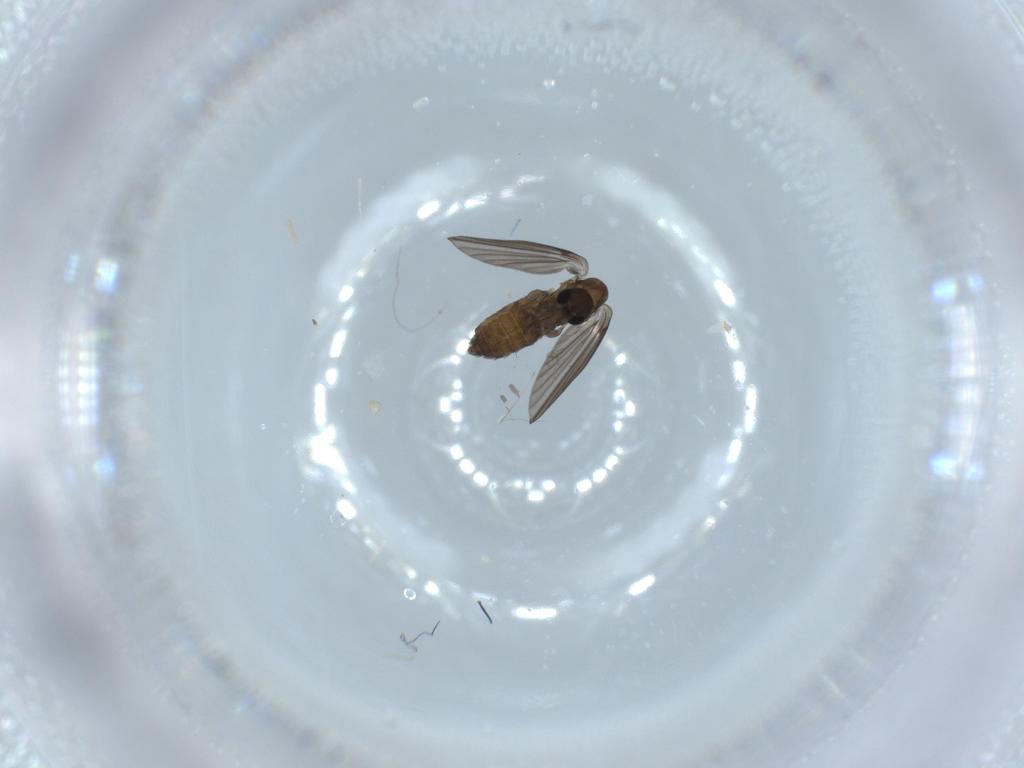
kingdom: Animalia
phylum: Arthropoda
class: Insecta
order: Diptera
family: Psychodidae
